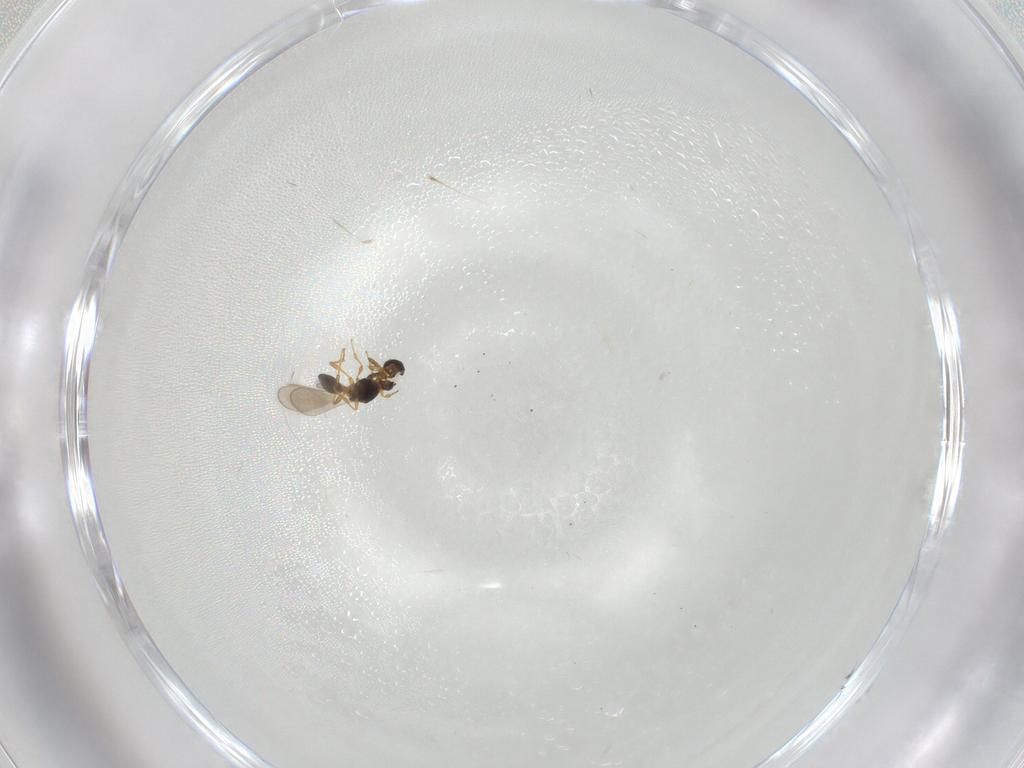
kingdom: Animalia
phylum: Arthropoda
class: Insecta
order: Hymenoptera
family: Platygastridae
